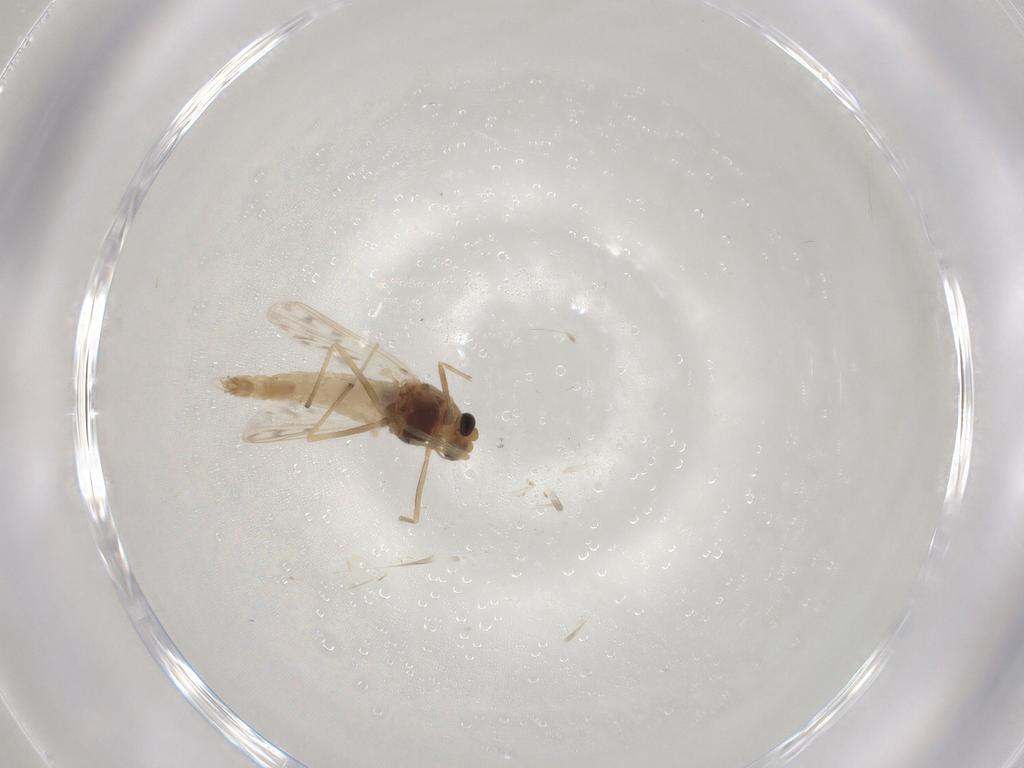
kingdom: Animalia
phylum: Arthropoda
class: Insecta
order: Diptera
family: Chironomidae
